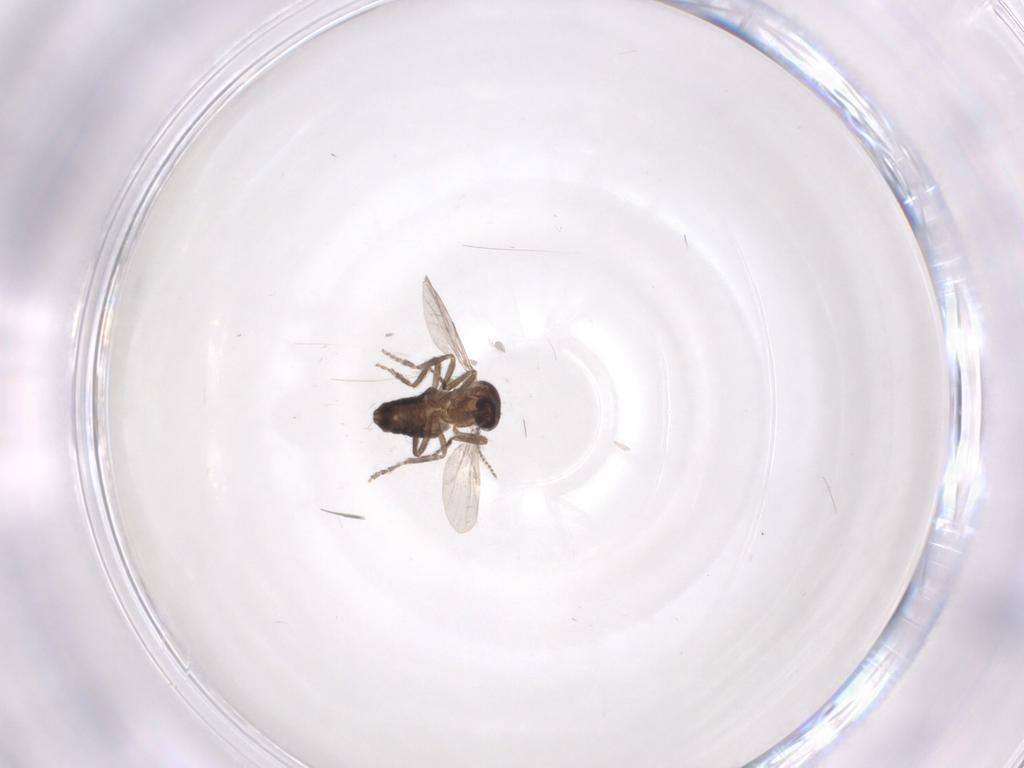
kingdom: Animalia
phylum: Arthropoda
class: Insecta
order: Diptera
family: Ceratopogonidae
